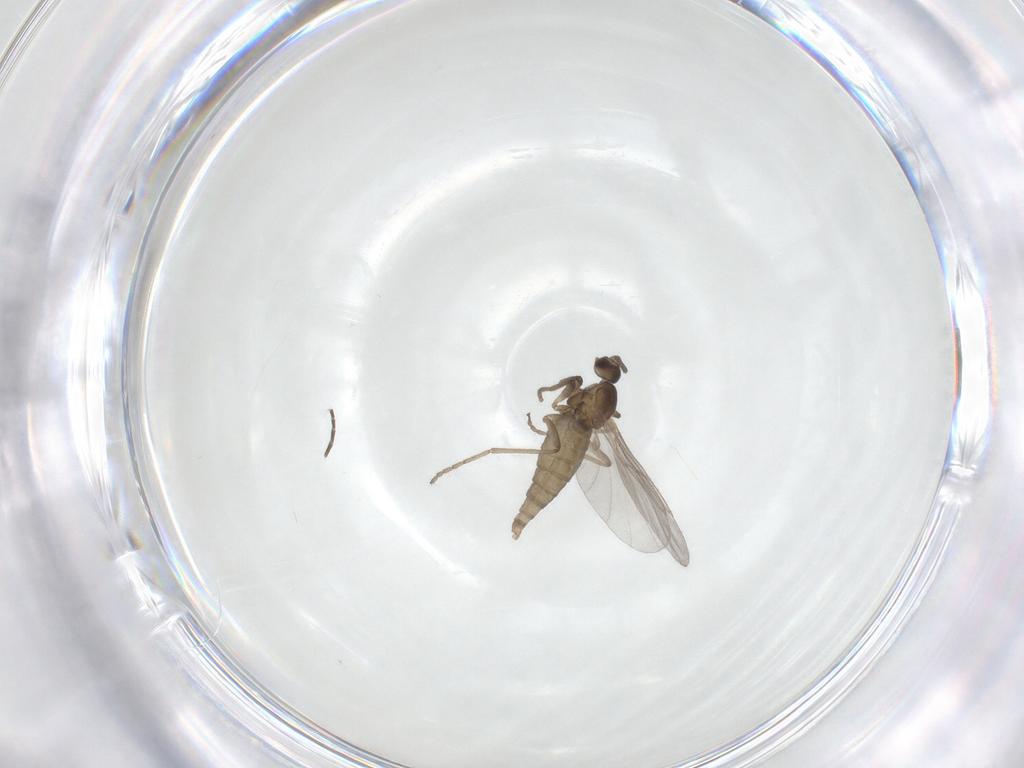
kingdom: Animalia
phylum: Arthropoda
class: Insecta
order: Diptera
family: Cecidomyiidae
